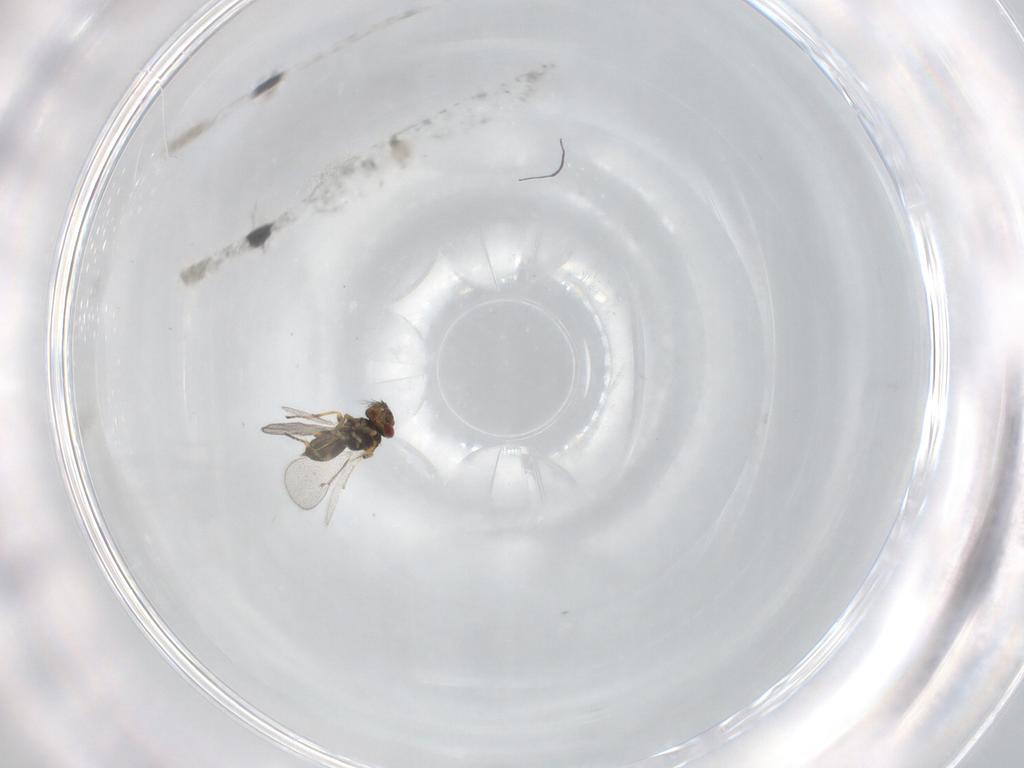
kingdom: Animalia
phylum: Arthropoda
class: Insecta
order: Hymenoptera
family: Eulophidae
